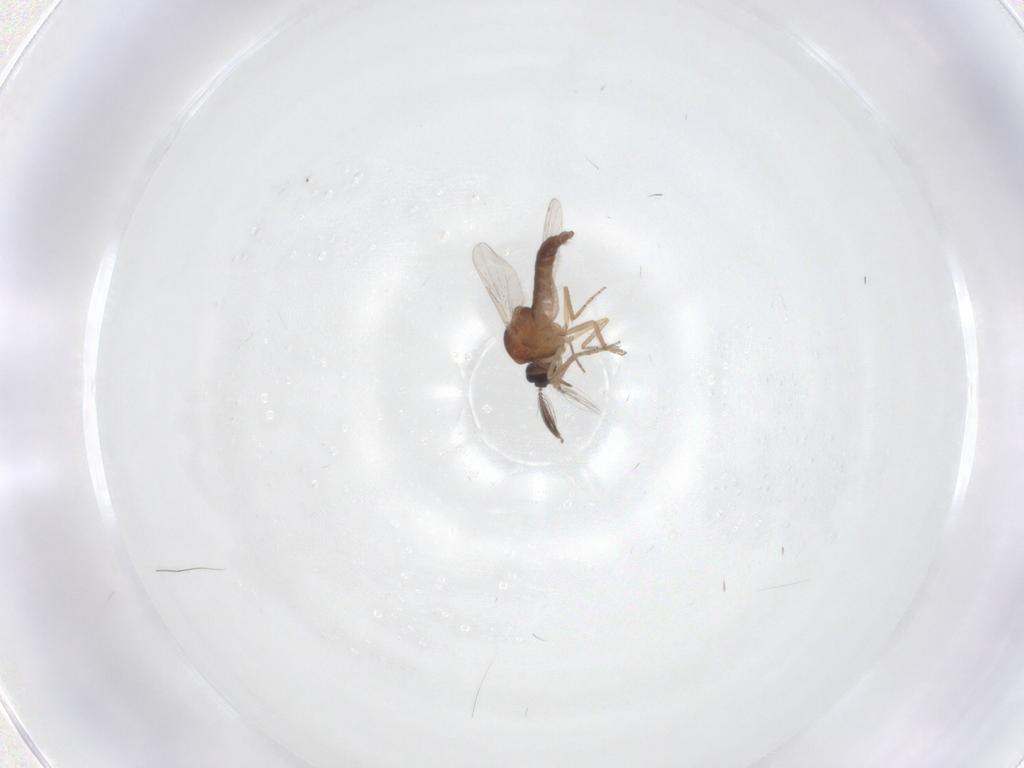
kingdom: Animalia
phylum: Arthropoda
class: Insecta
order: Diptera
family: Ceratopogonidae
